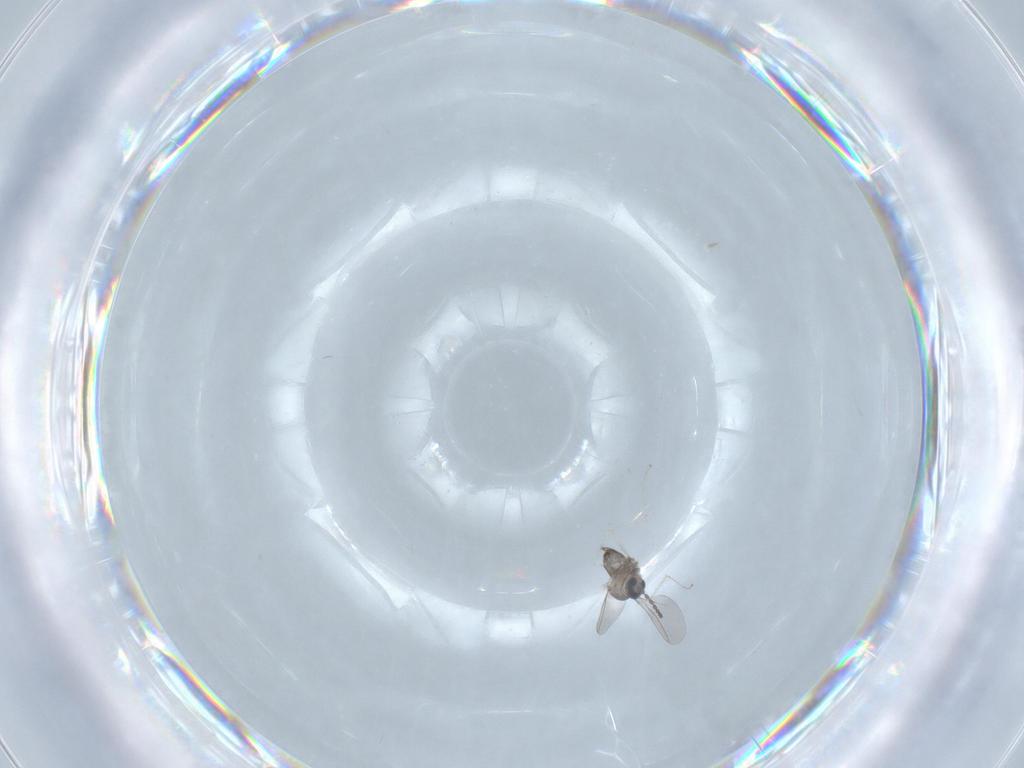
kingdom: Animalia
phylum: Arthropoda
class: Insecta
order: Diptera
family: Cecidomyiidae
